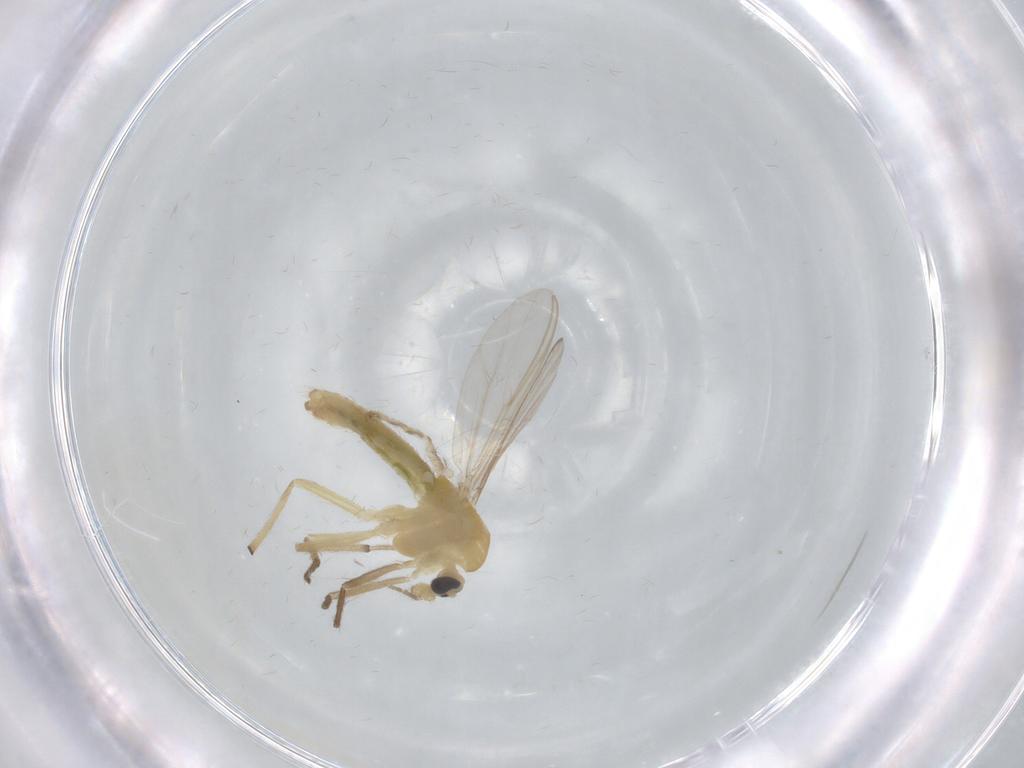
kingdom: Animalia
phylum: Arthropoda
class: Insecta
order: Diptera
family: Chironomidae
